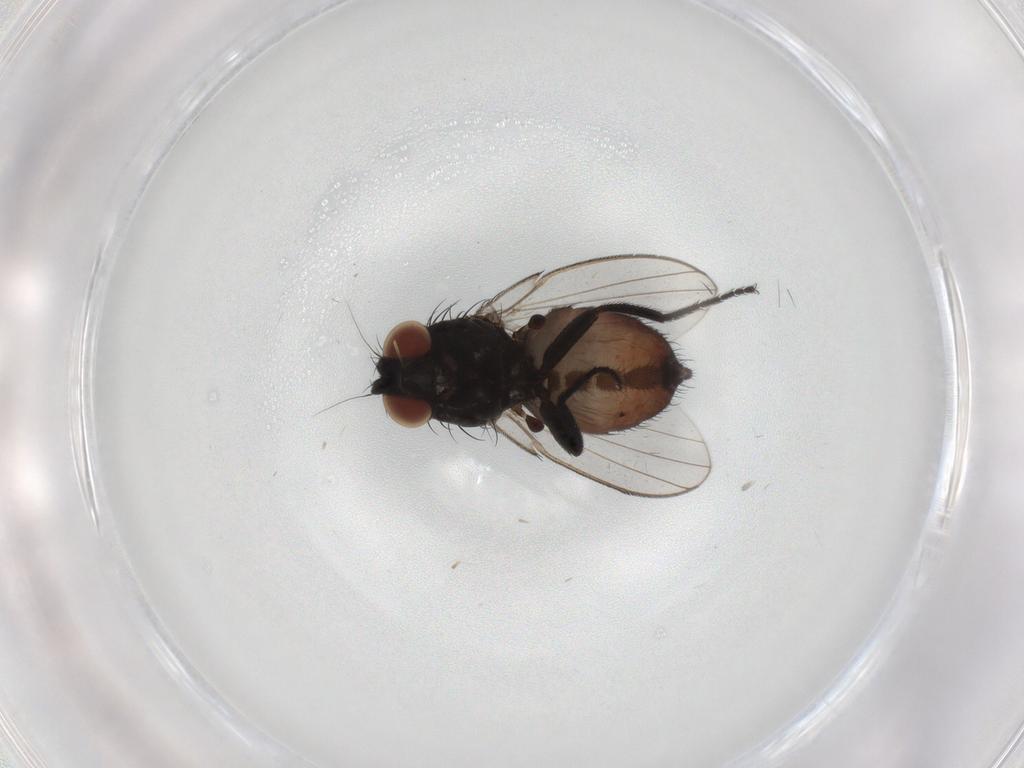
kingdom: Animalia
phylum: Arthropoda
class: Insecta
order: Diptera
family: Milichiidae
